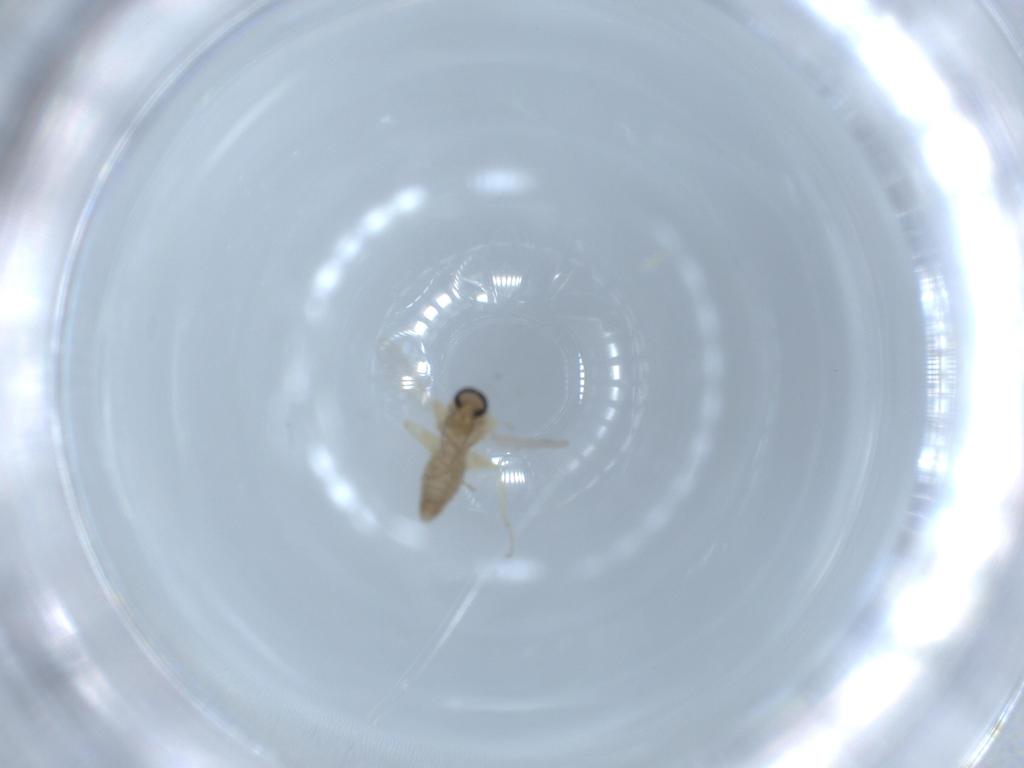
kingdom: Animalia
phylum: Arthropoda
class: Insecta
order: Diptera
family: Ceratopogonidae
